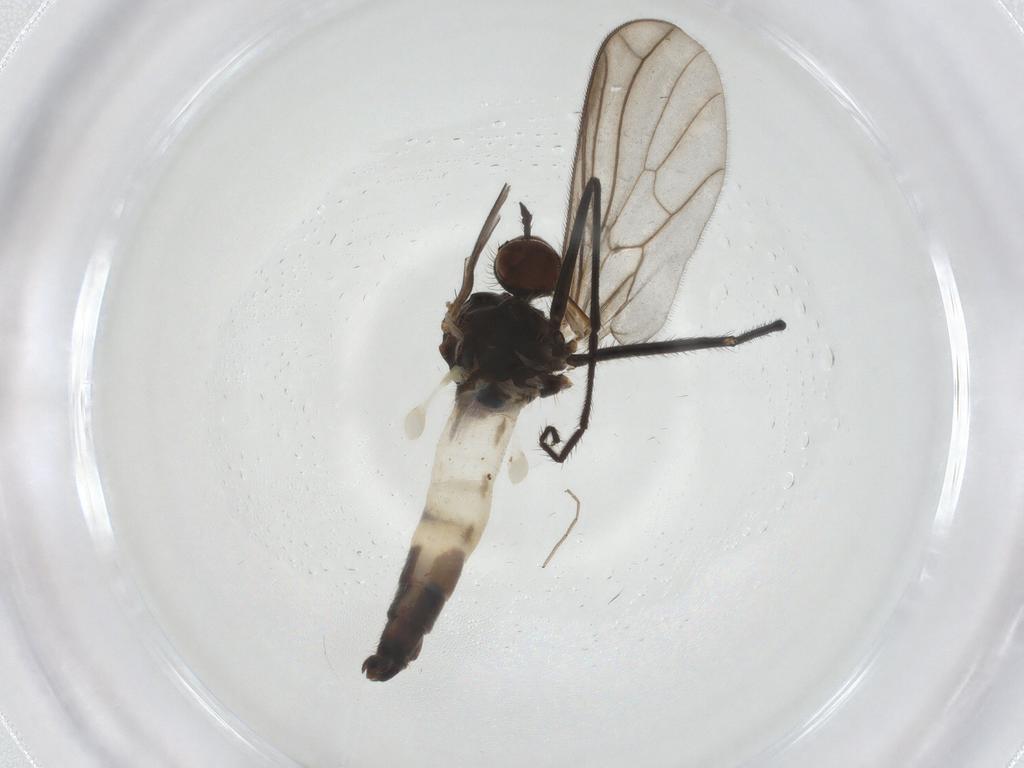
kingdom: Animalia
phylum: Arthropoda
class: Insecta
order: Diptera
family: Empididae
